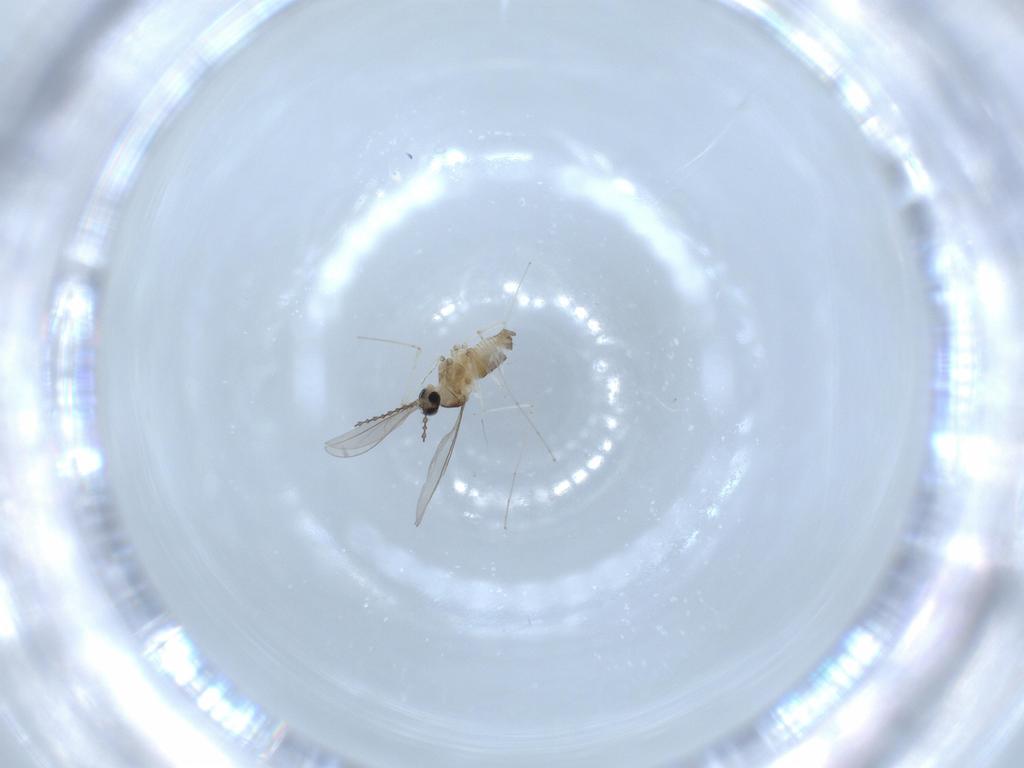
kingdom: Animalia
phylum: Arthropoda
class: Insecta
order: Diptera
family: Cecidomyiidae
